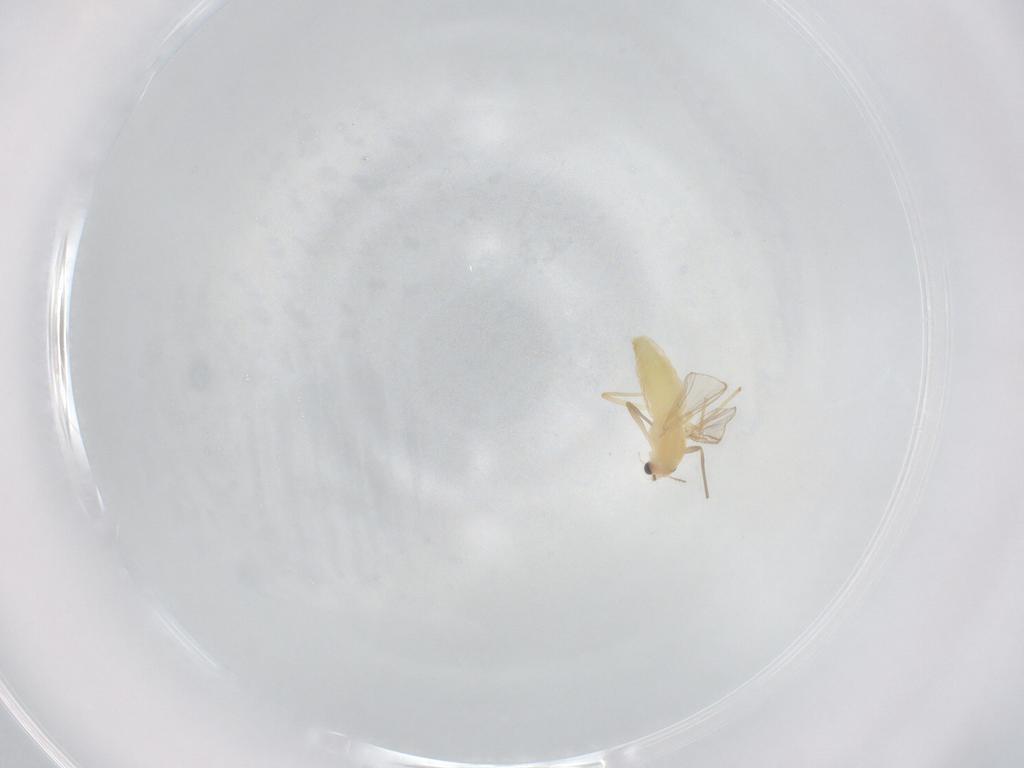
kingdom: Animalia
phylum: Arthropoda
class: Insecta
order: Diptera
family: Chironomidae
